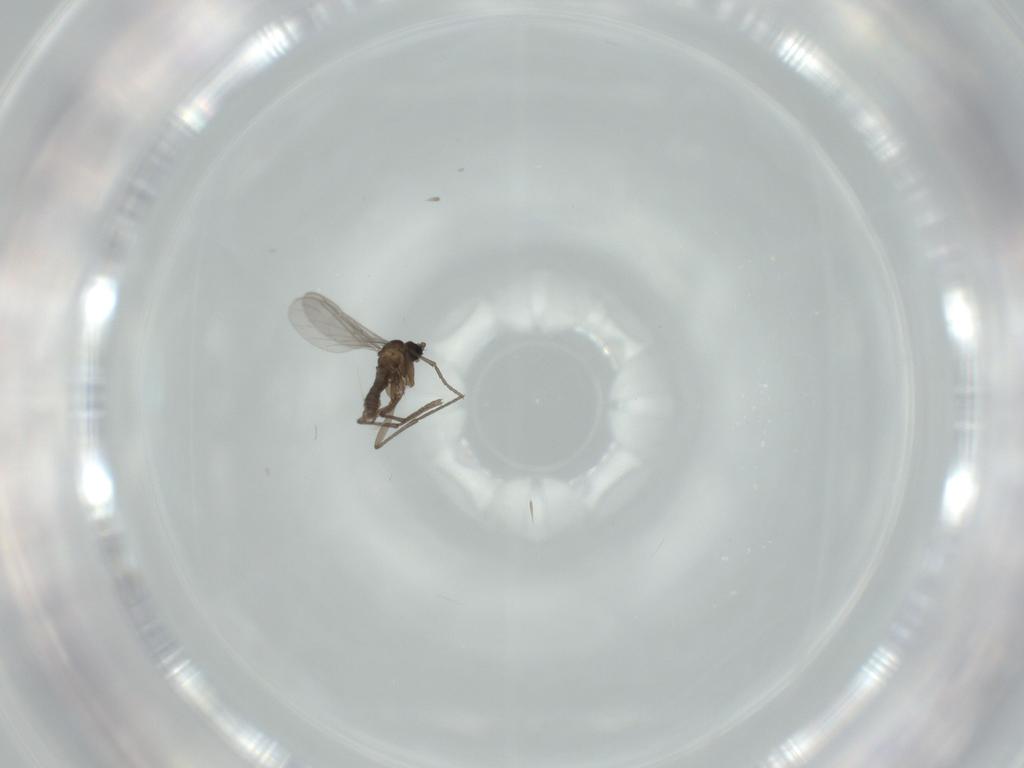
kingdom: Animalia
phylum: Arthropoda
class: Insecta
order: Diptera
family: Sciaridae
